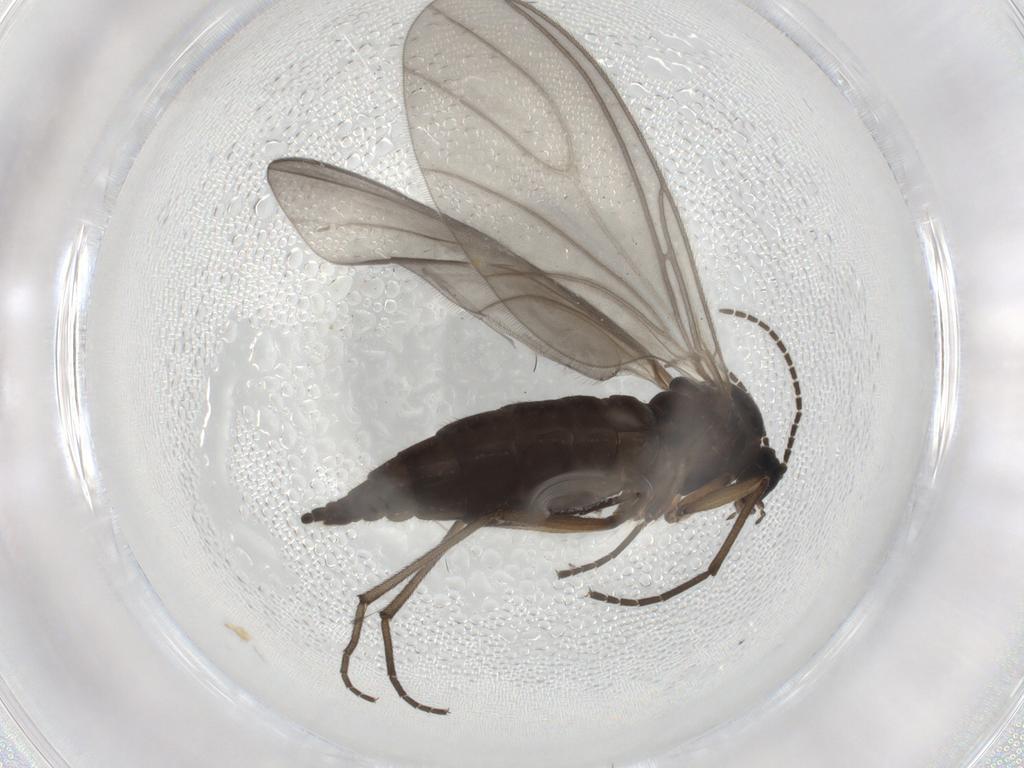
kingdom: Animalia
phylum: Arthropoda
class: Insecta
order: Diptera
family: Sciaridae
